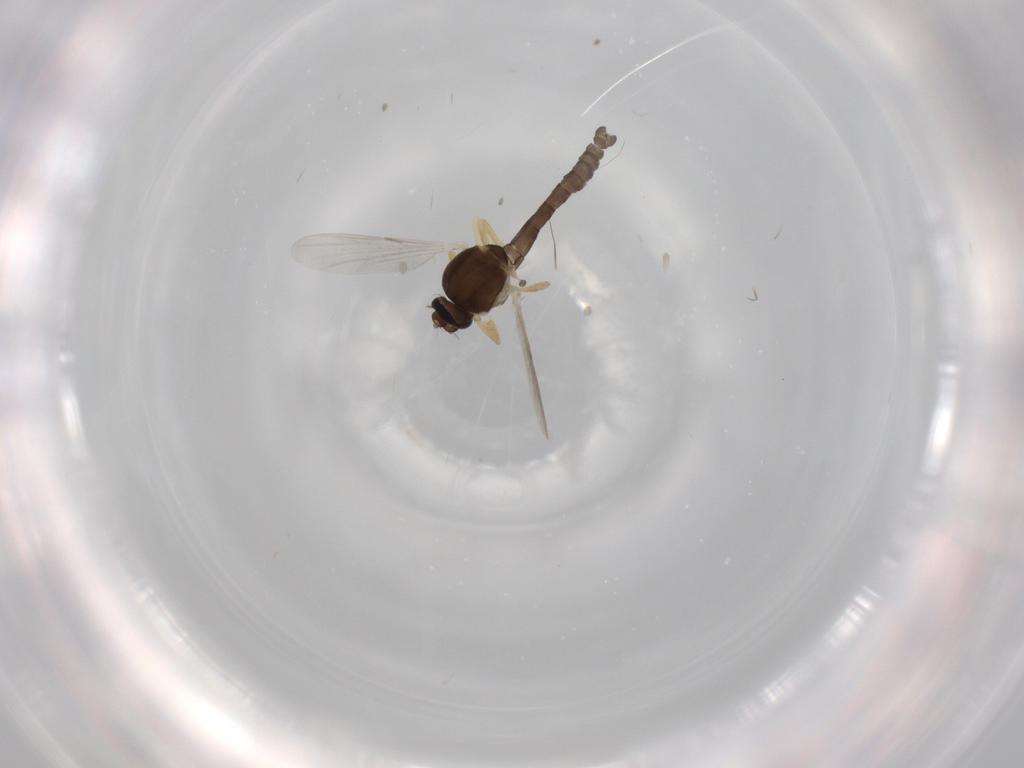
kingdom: Animalia
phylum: Arthropoda
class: Insecta
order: Diptera
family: Ceratopogonidae
